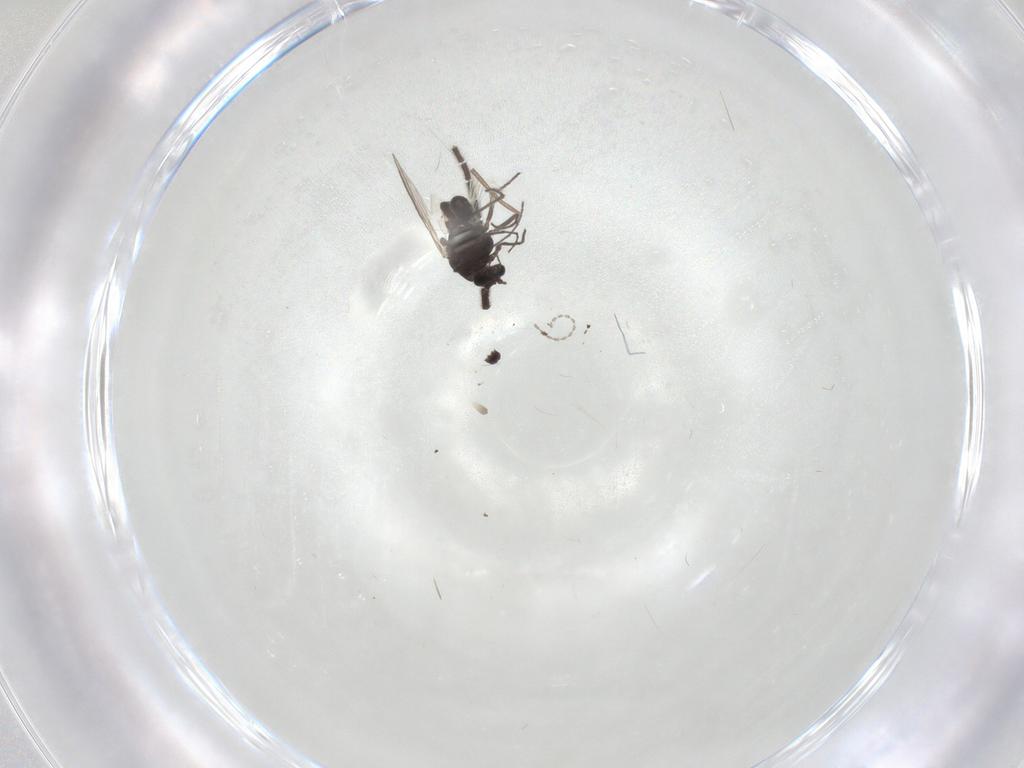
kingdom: Animalia
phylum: Arthropoda
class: Insecta
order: Diptera
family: Chironomidae
